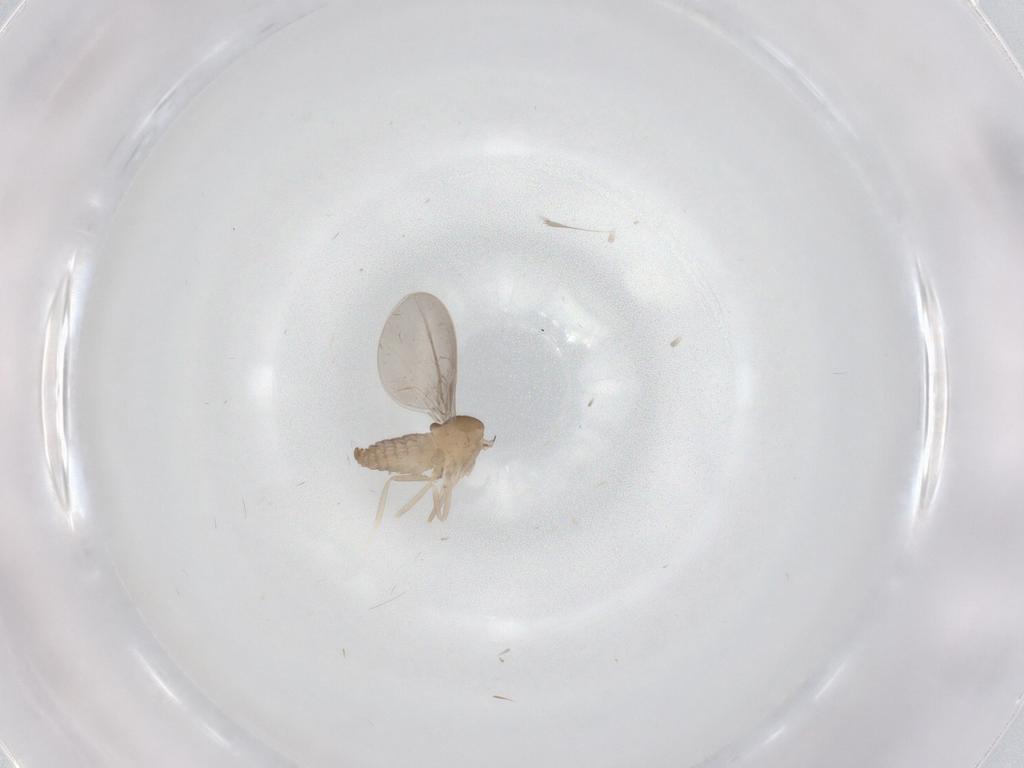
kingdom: Animalia
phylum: Arthropoda
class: Insecta
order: Diptera
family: Cecidomyiidae
